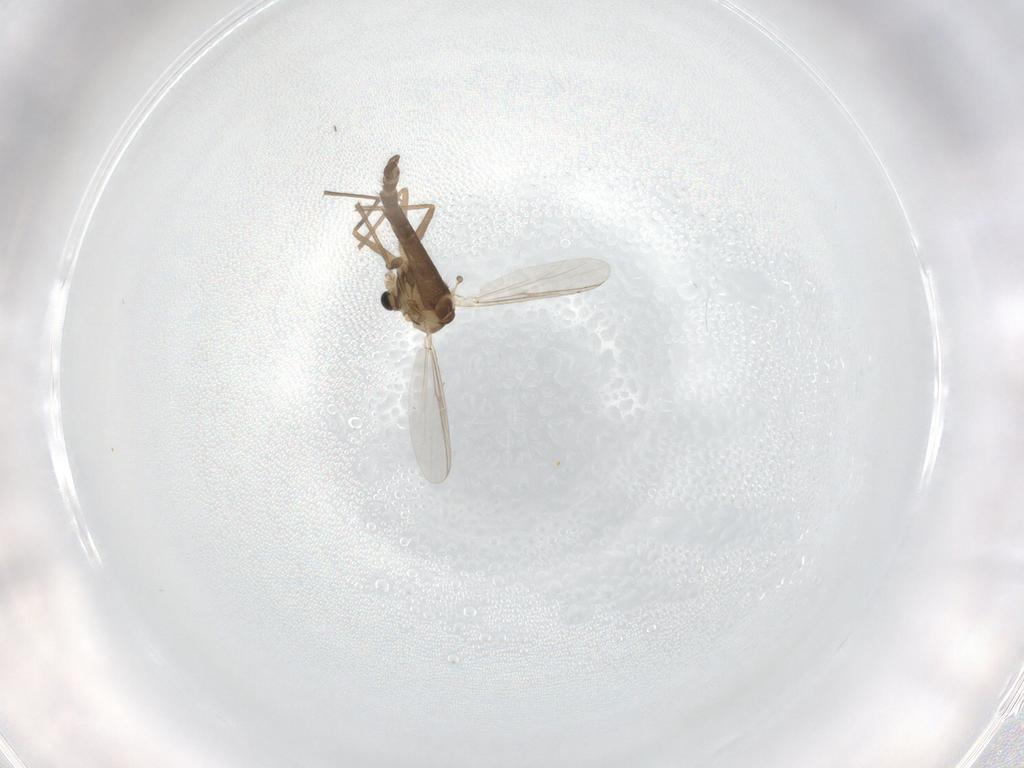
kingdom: Animalia
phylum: Arthropoda
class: Insecta
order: Diptera
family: Chironomidae
